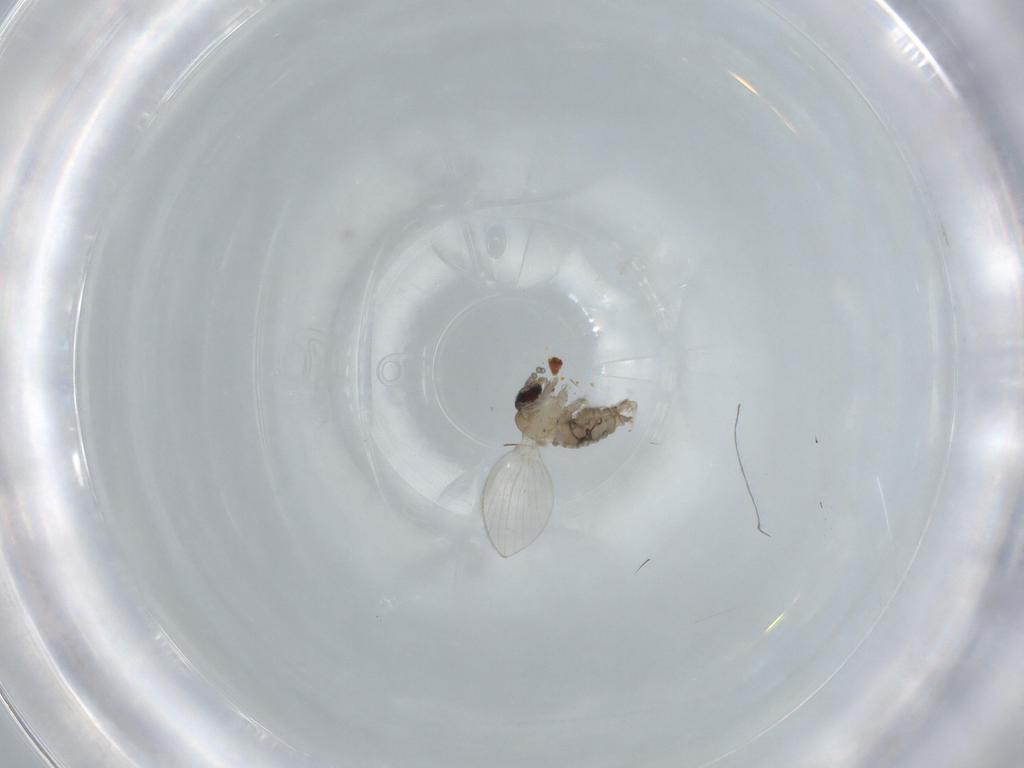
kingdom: Animalia
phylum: Arthropoda
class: Insecta
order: Diptera
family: Psychodidae
